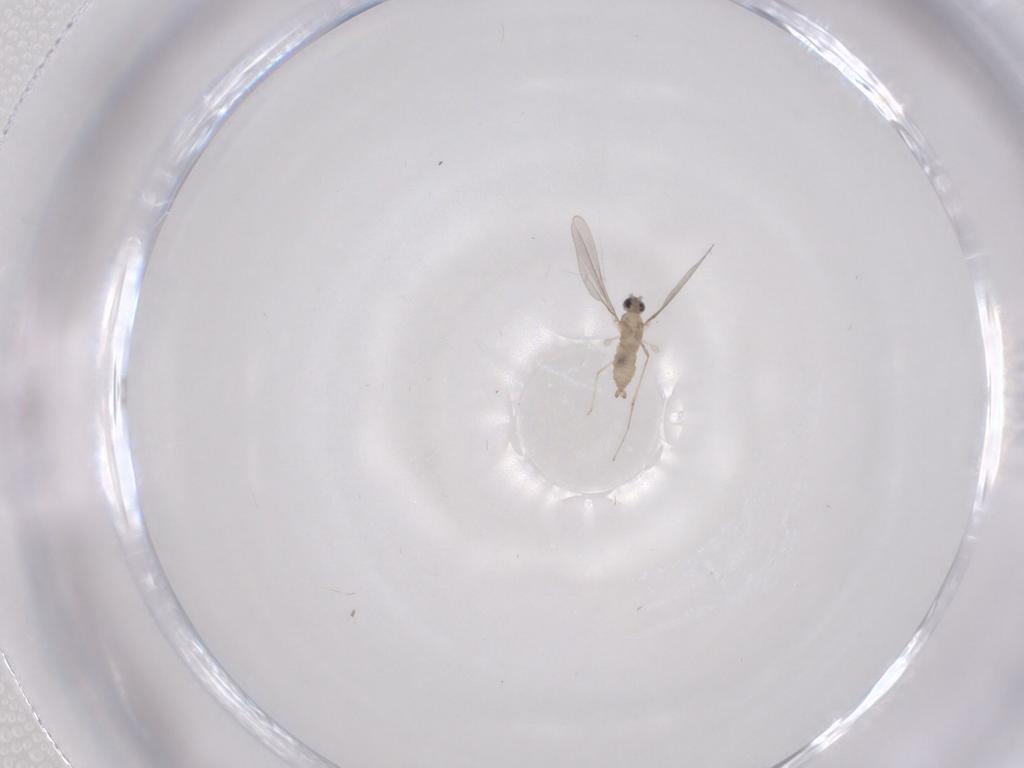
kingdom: Animalia
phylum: Arthropoda
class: Insecta
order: Diptera
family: Cecidomyiidae
